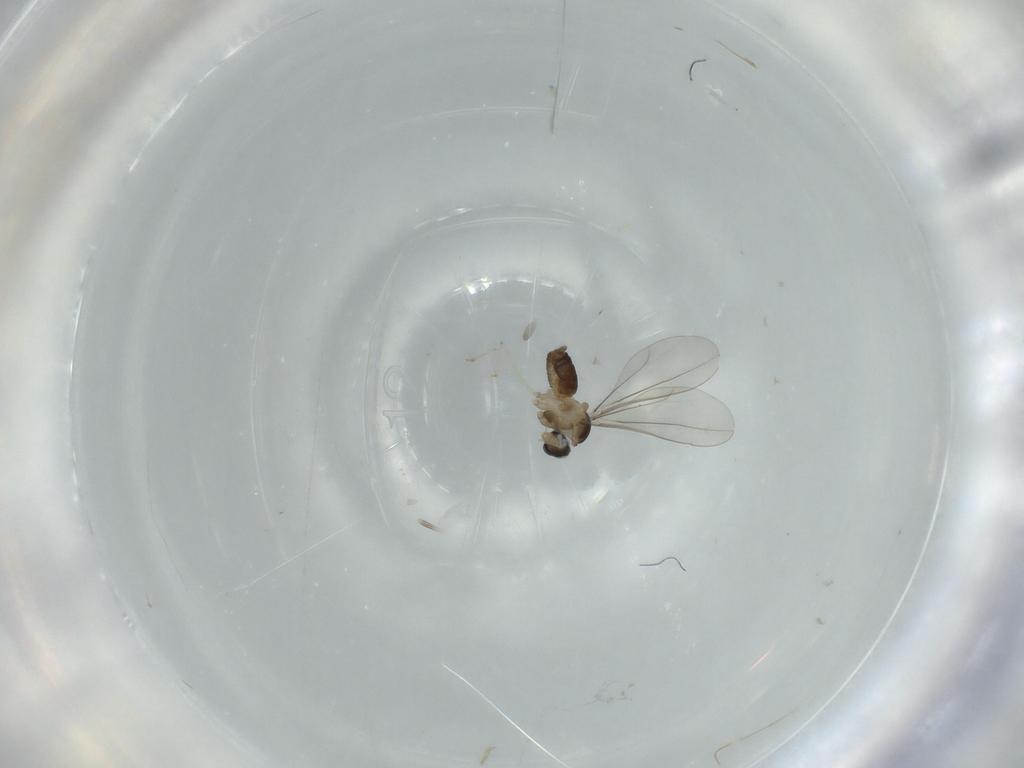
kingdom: Animalia
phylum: Arthropoda
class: Insecta
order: Diptera
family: Cecidomyiidae
